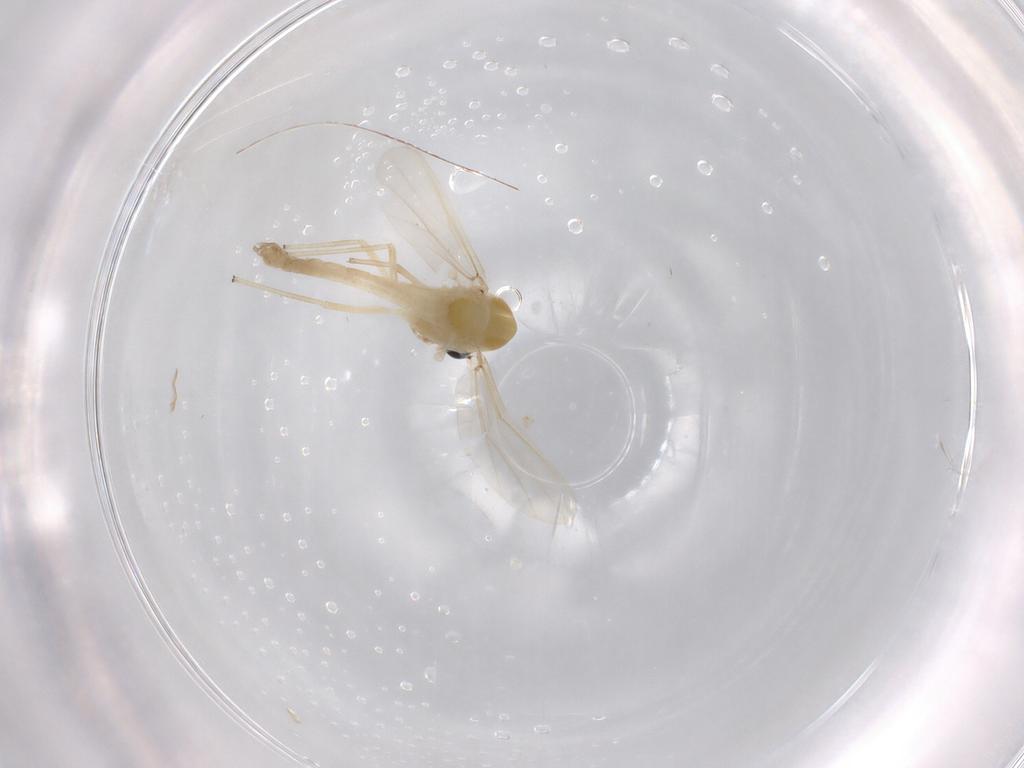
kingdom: Animalia
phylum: Arthropoda
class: Insecta
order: Diptera
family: Chironomidae
